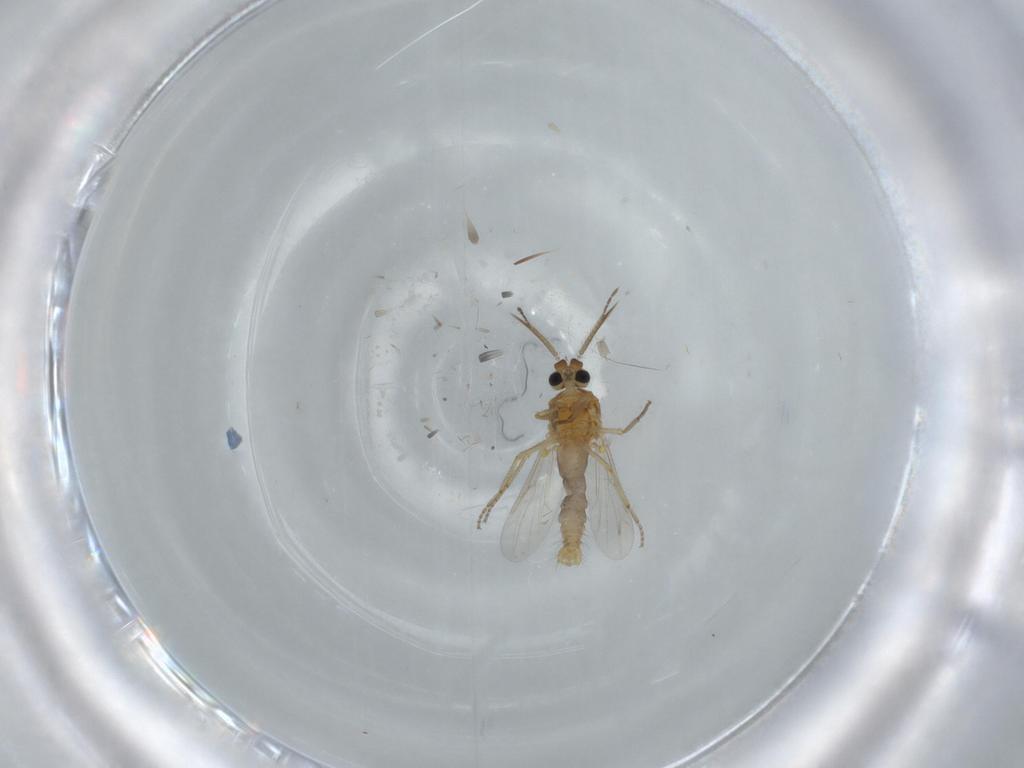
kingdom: Animalia
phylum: Arthropoda
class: Insecta
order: Diptera
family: Ceratopogonidae
